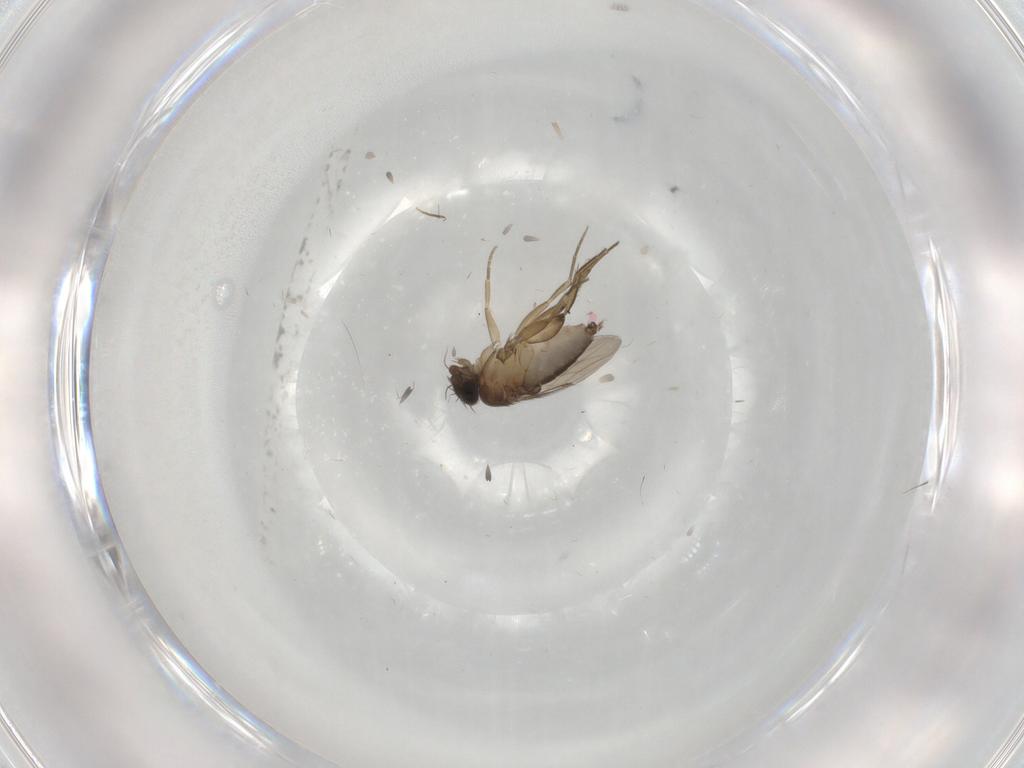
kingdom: Animalia
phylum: Arthropoda
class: Insecta
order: Diptera
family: Phoridae
